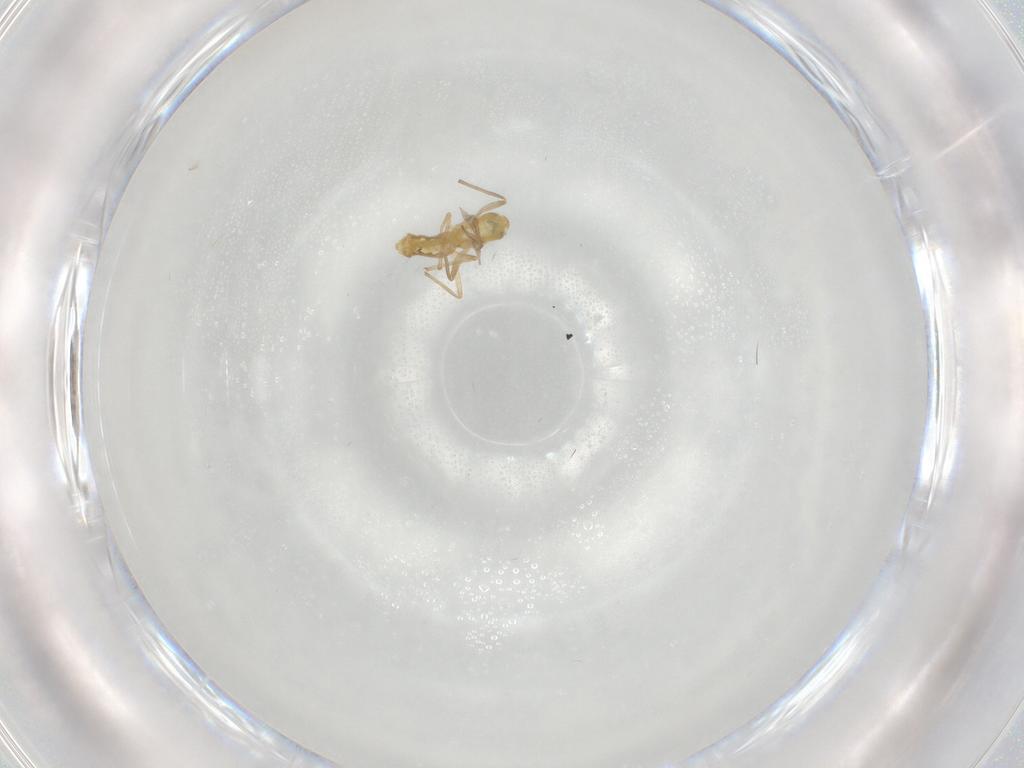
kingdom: Animalia
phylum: Arthropoda
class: Insecta
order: Diptera
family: Chironomidae
